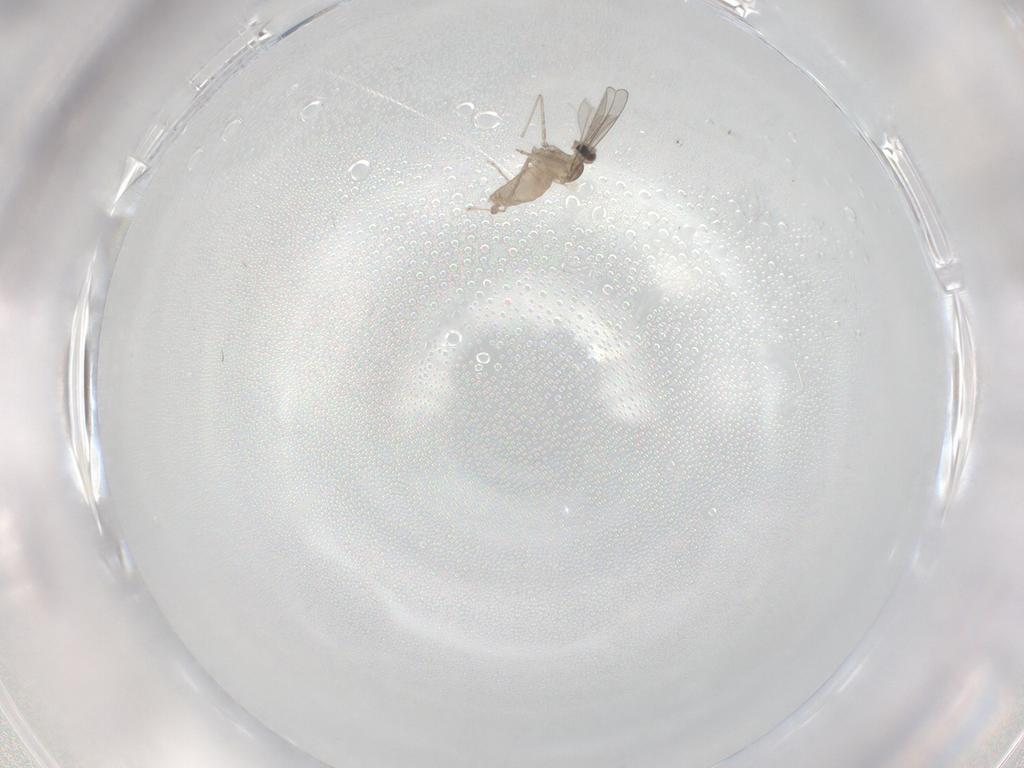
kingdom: Animalia
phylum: Arthropoda
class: Insecta
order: Diptera
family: Cecidomyiidae
